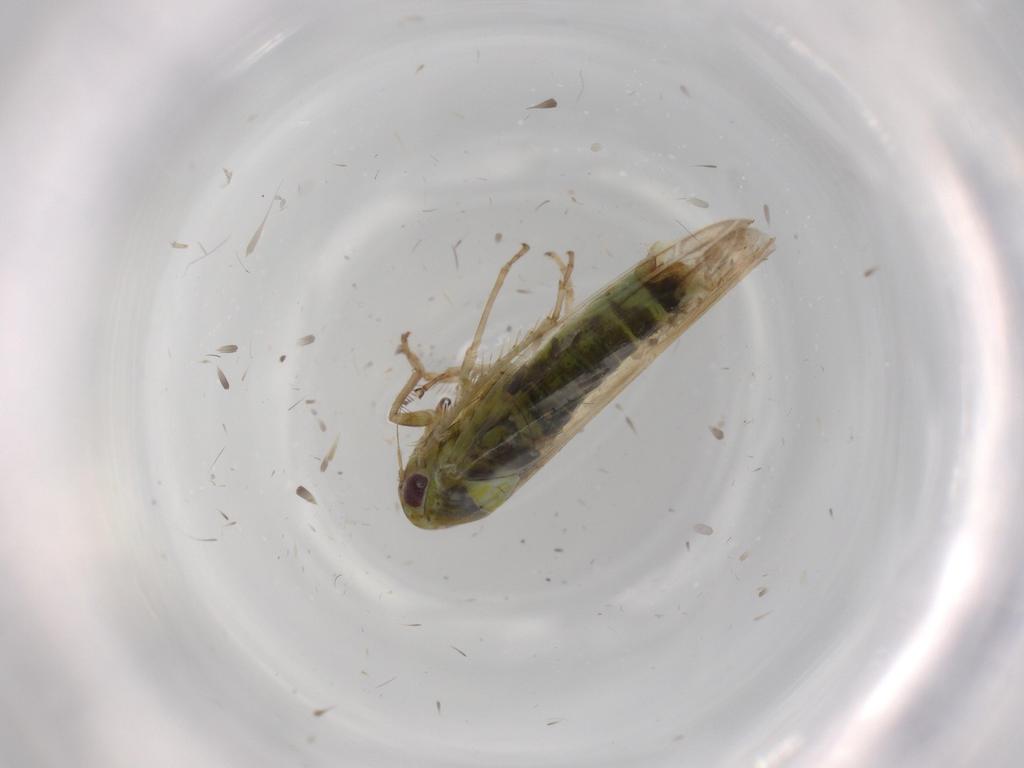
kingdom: Animalia
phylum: Arthropoda
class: Insecta
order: Hemiptera
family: Cicadellidae
